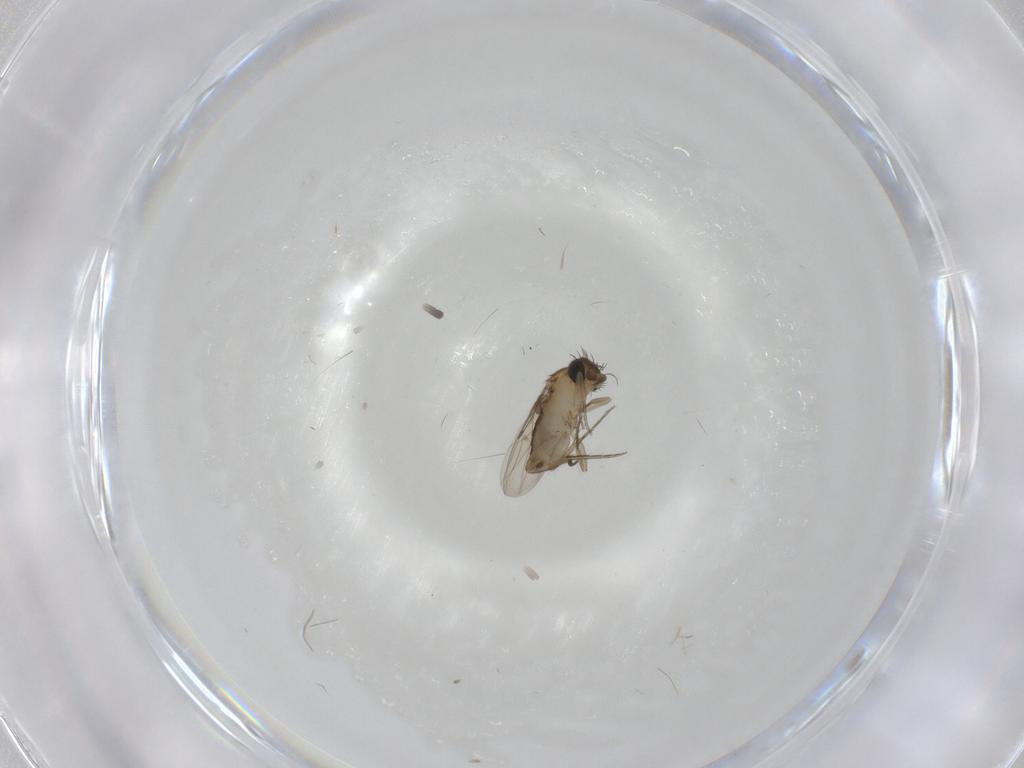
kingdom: Animalia
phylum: Arthropoda
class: Insecta
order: Diptera
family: Phoridae
